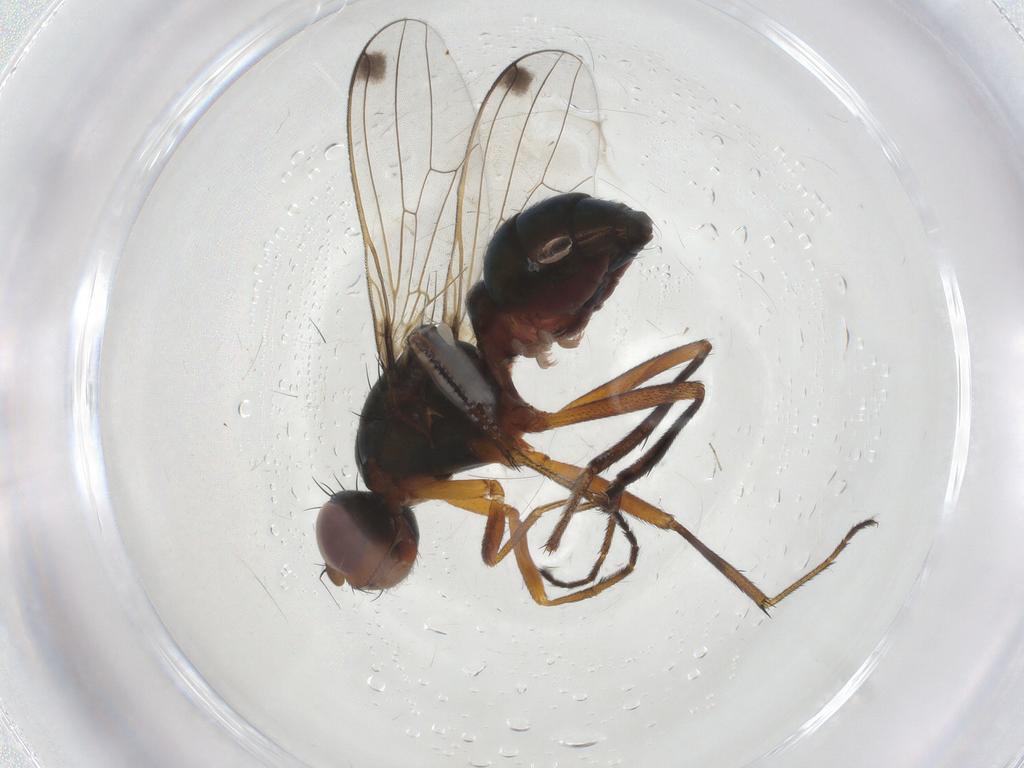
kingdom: Animalia
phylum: Arthropoda
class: Insecta
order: Diptera
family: Sepsidae
